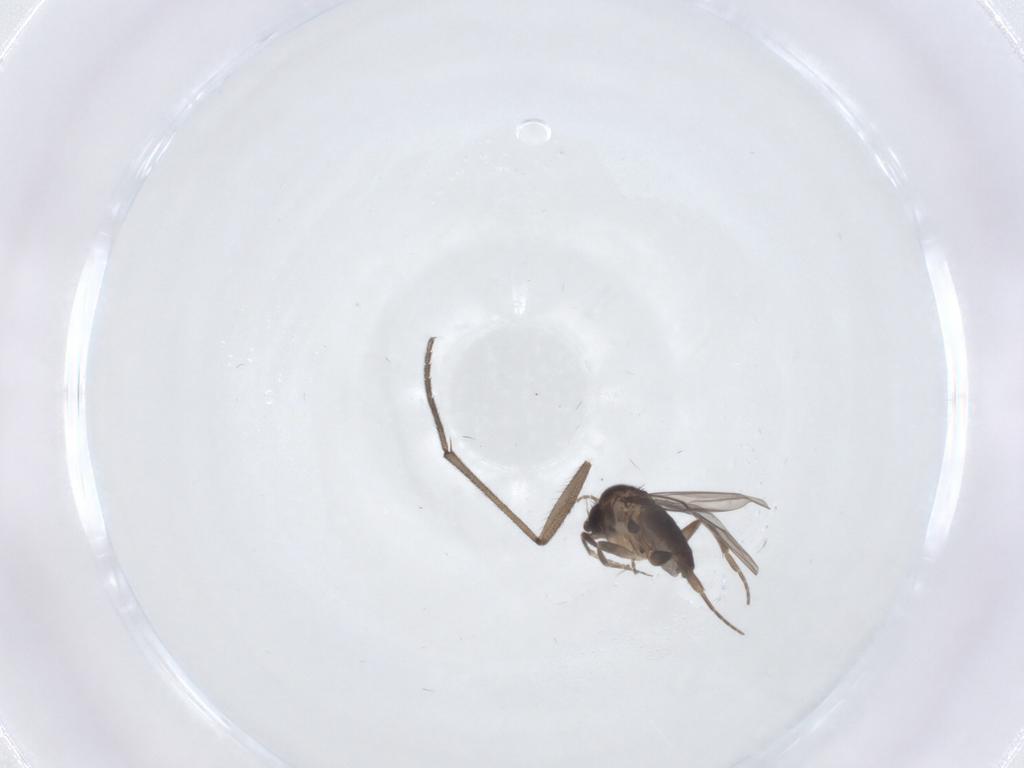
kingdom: Animalia
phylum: Arthropoda
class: Insecta
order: Diptera
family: Sciaridae
